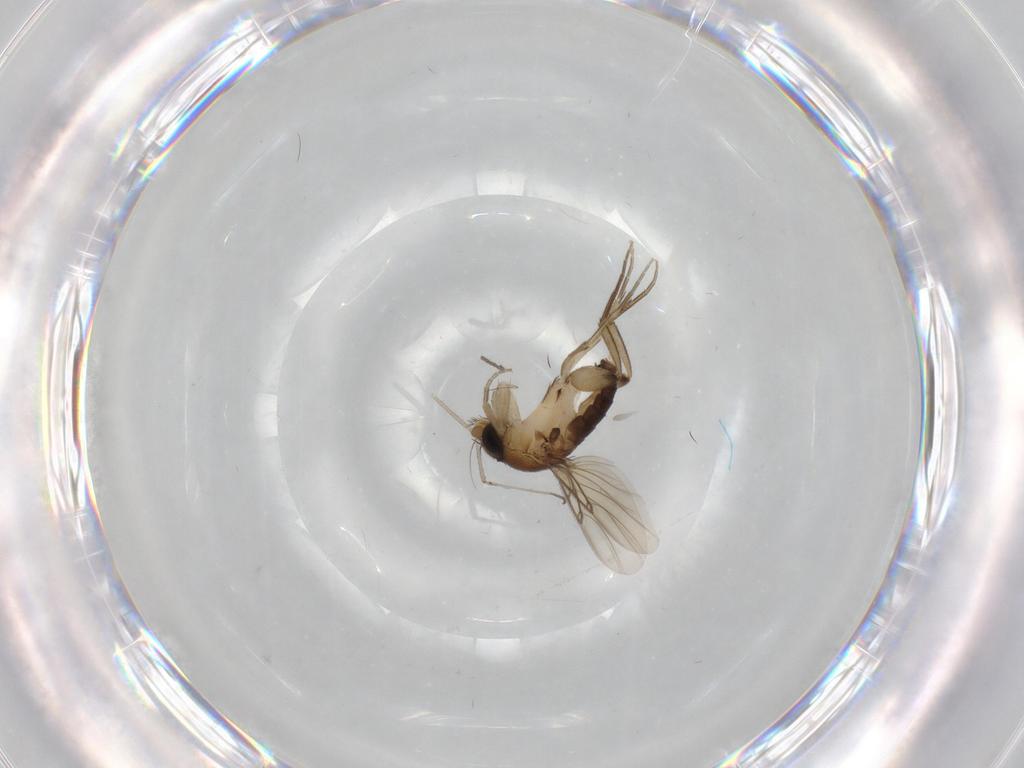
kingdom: Animalia
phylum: Arthropoda
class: Insecta
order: Diptera
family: Phoridae
